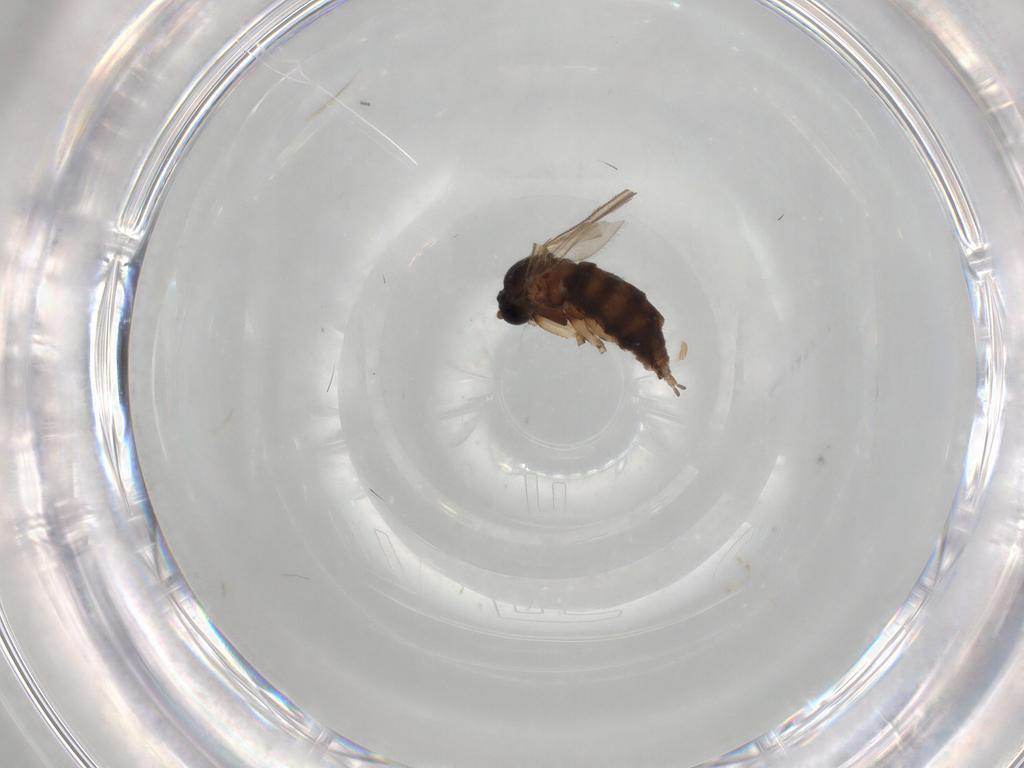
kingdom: Animalia
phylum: Arthropoda
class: Insecta
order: Diptera
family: Sciaridae
